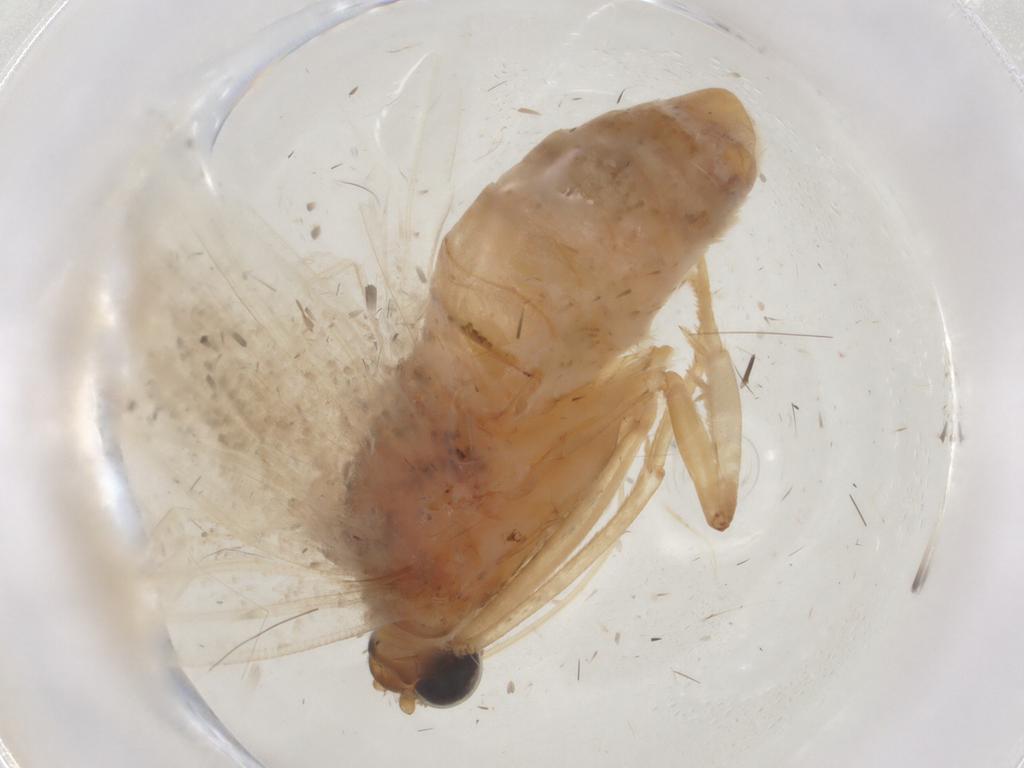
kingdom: Animalia
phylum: Arthropoda
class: Insecta
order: Lepidoptera
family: Geometridae
